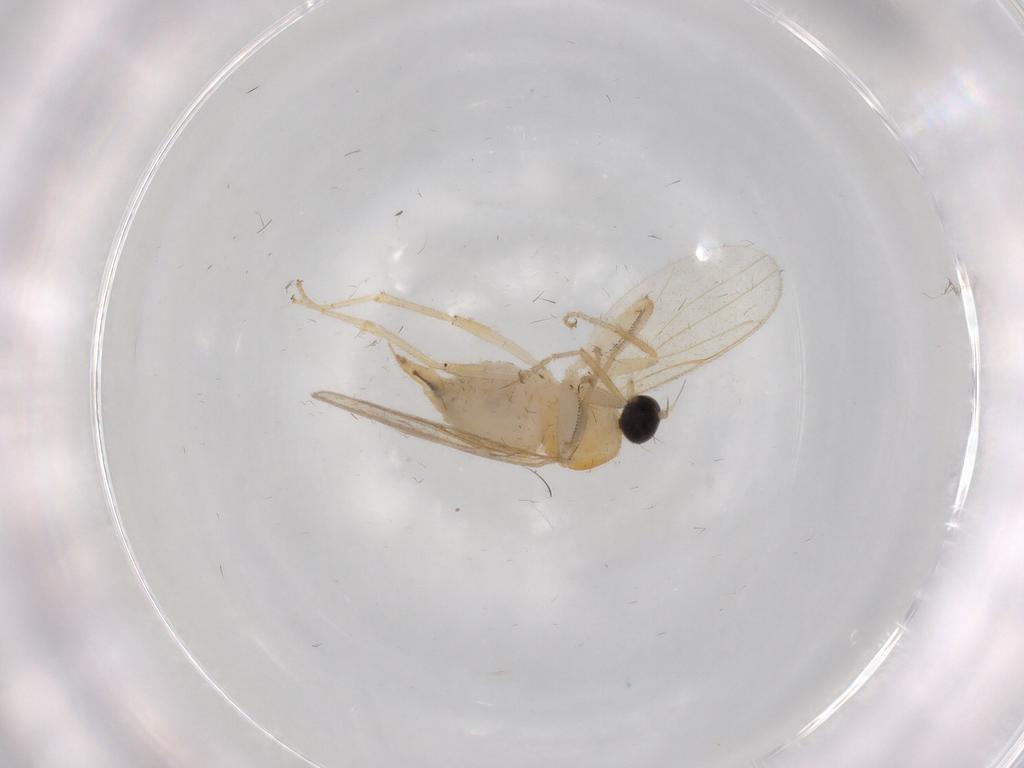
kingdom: Animalia
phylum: Arthropoda
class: Insecta
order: Diptera
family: Hybotidae
